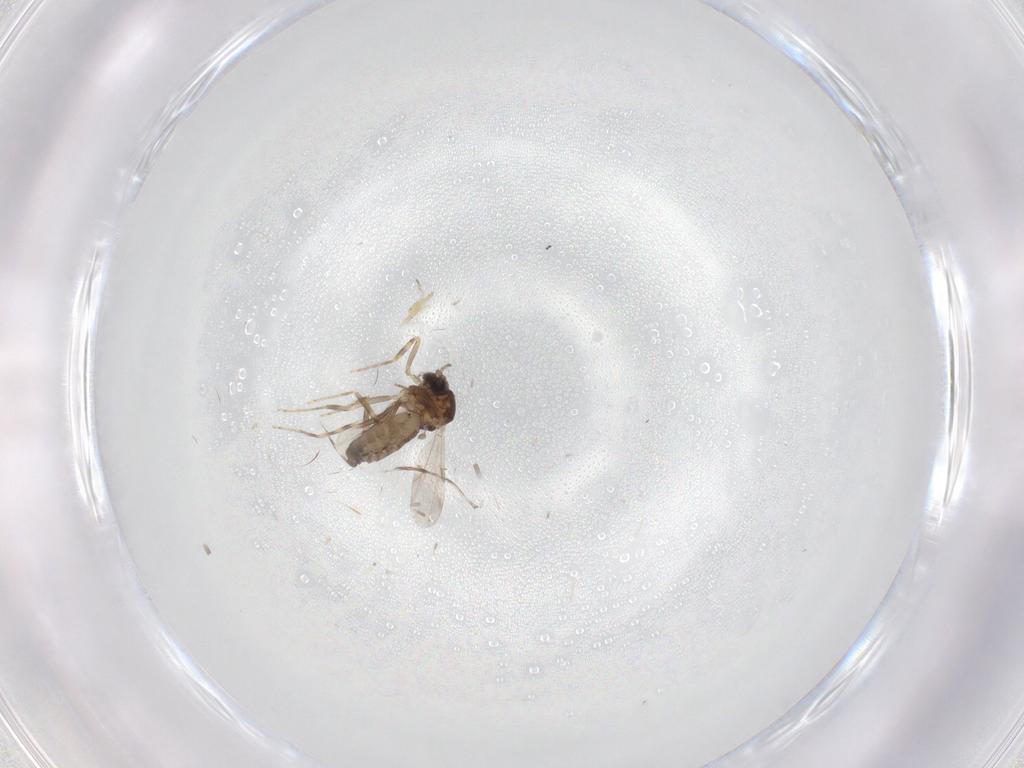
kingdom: Animalia
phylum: Arthropoda
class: Insecta
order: Diptera
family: Ceratopogonidae
